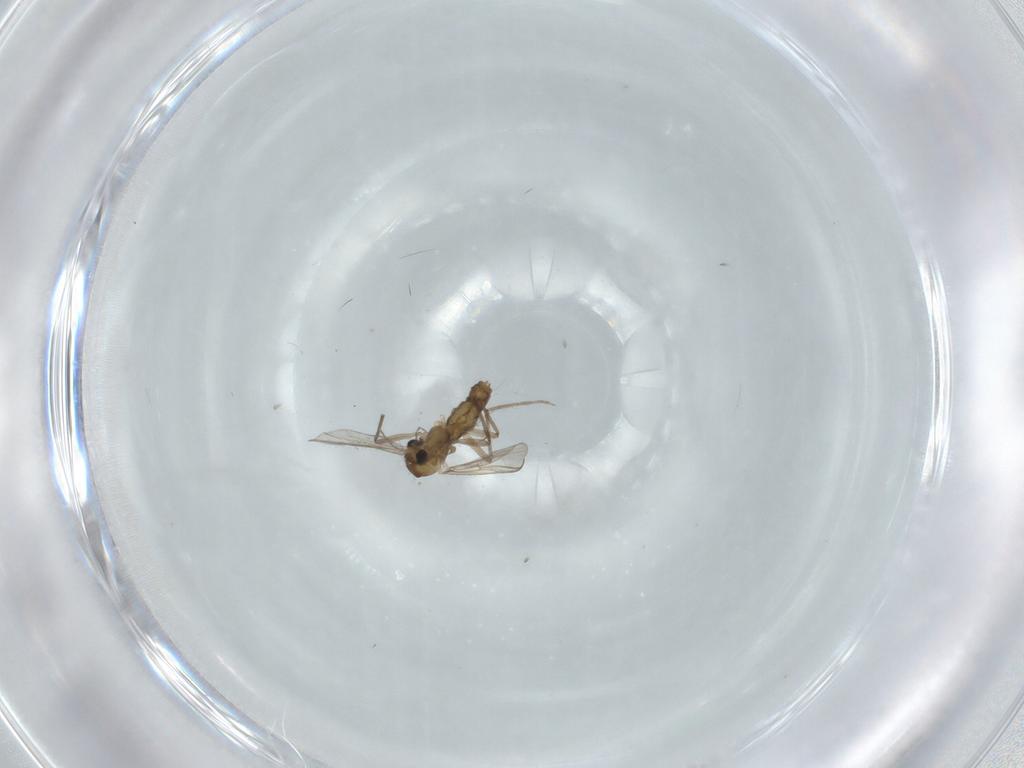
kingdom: Animalia
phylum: Arthropoda
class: Insecta
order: Diptera
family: Chironomidae
